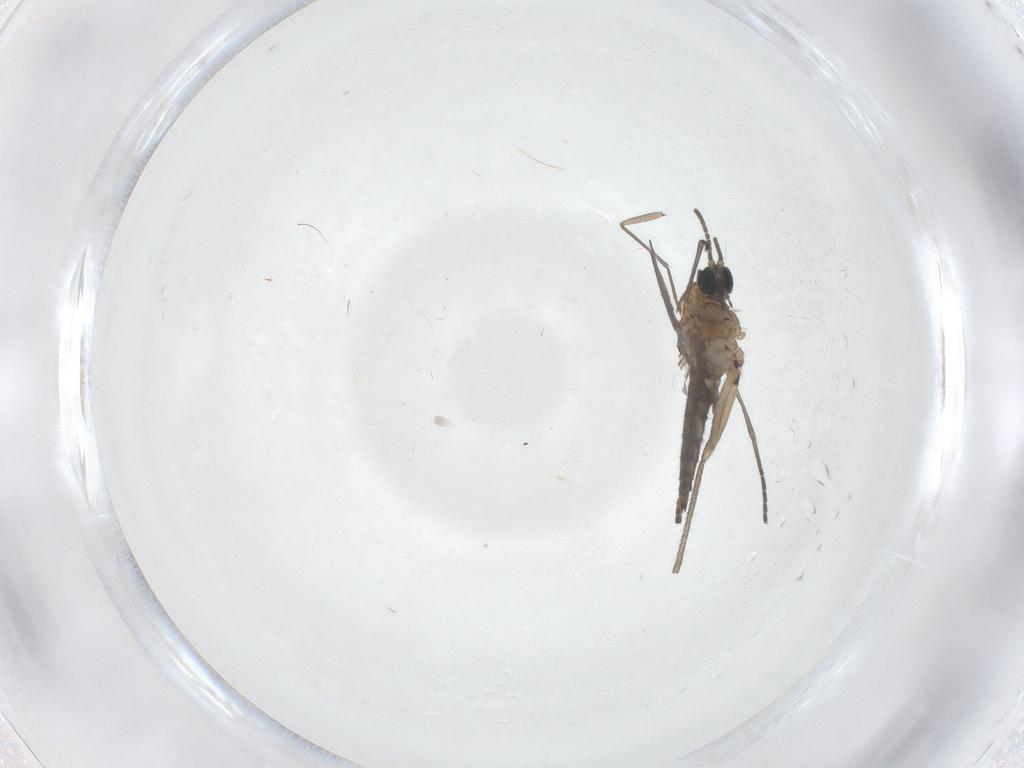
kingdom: Animalia
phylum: Arthropoda
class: Insecta
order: Diptera
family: Sciaridae
